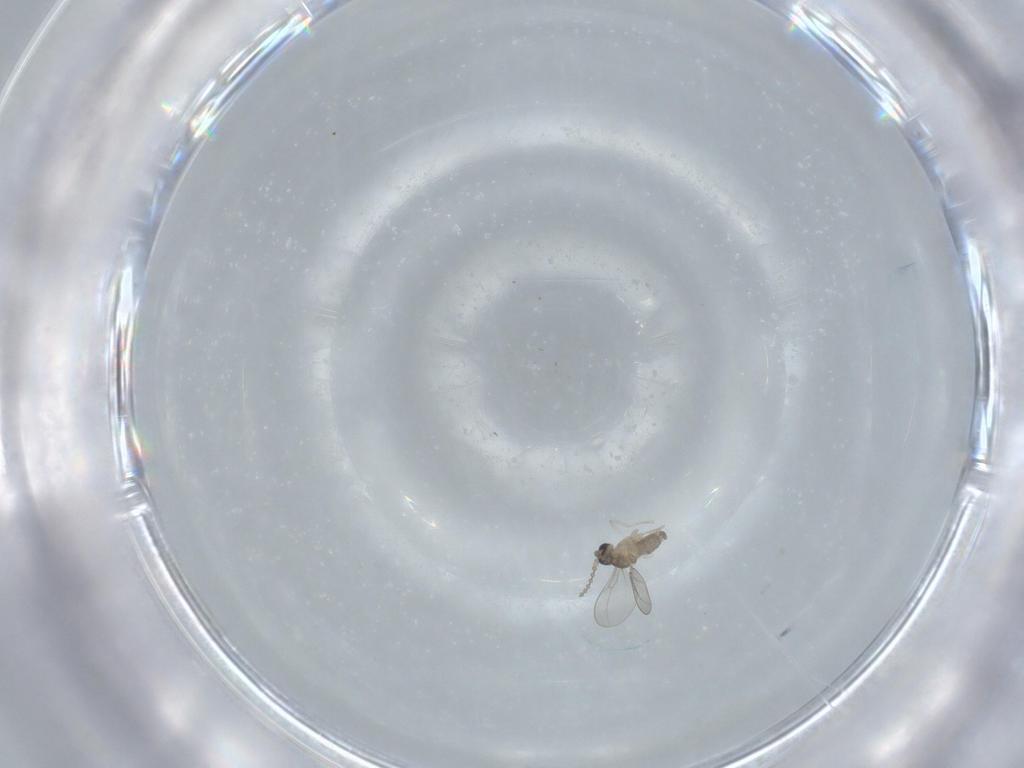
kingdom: Animalia
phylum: Arthropoda
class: Insecta
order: Diptera
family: Cecidomyiidae
